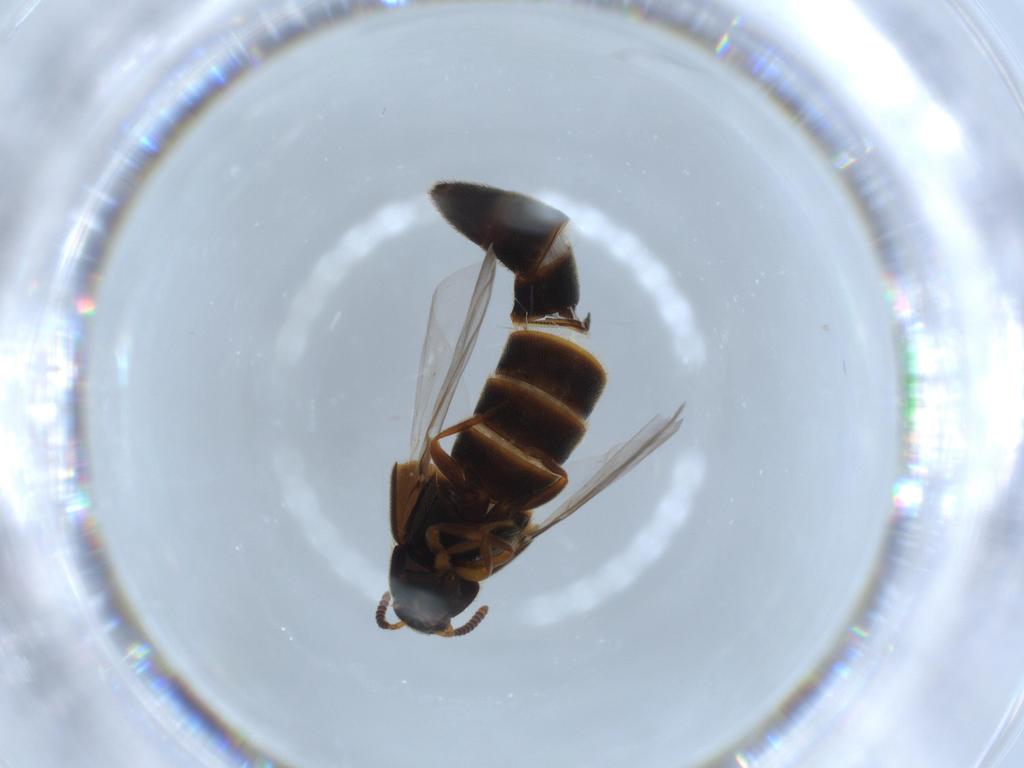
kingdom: Animalia
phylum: Arthropoda
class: Insecta
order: Coleoptera
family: Staphylinidae
